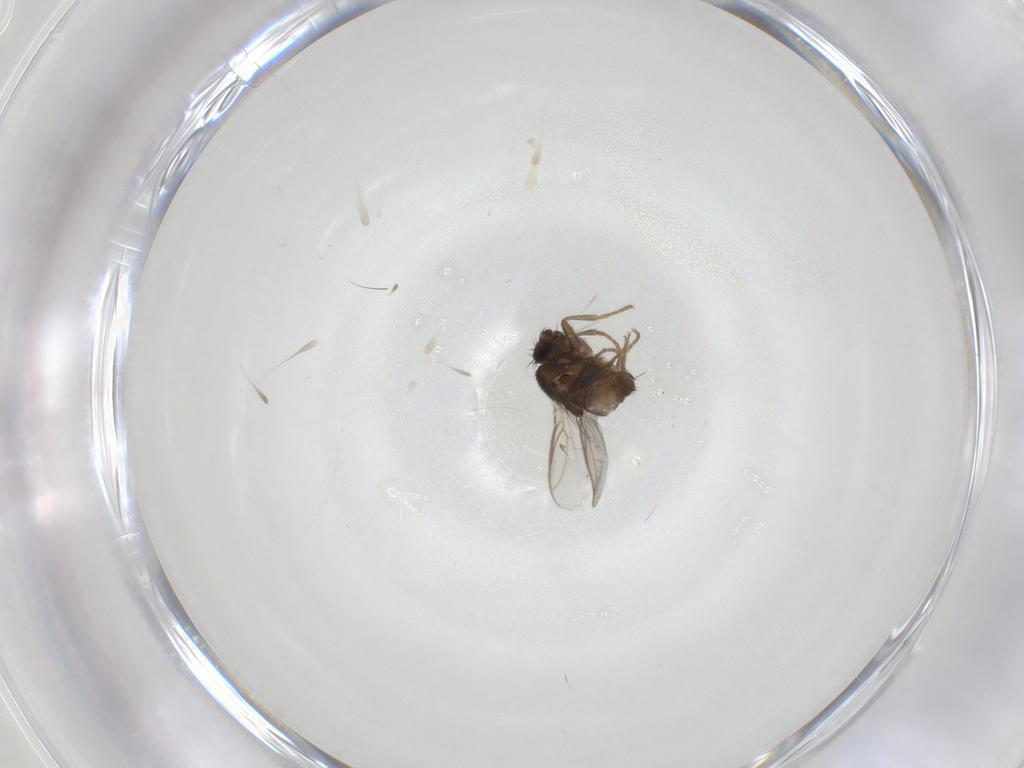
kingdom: Animalia
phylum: Arthropoda
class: Insecta
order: Diptera
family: Sphaeroceridae
